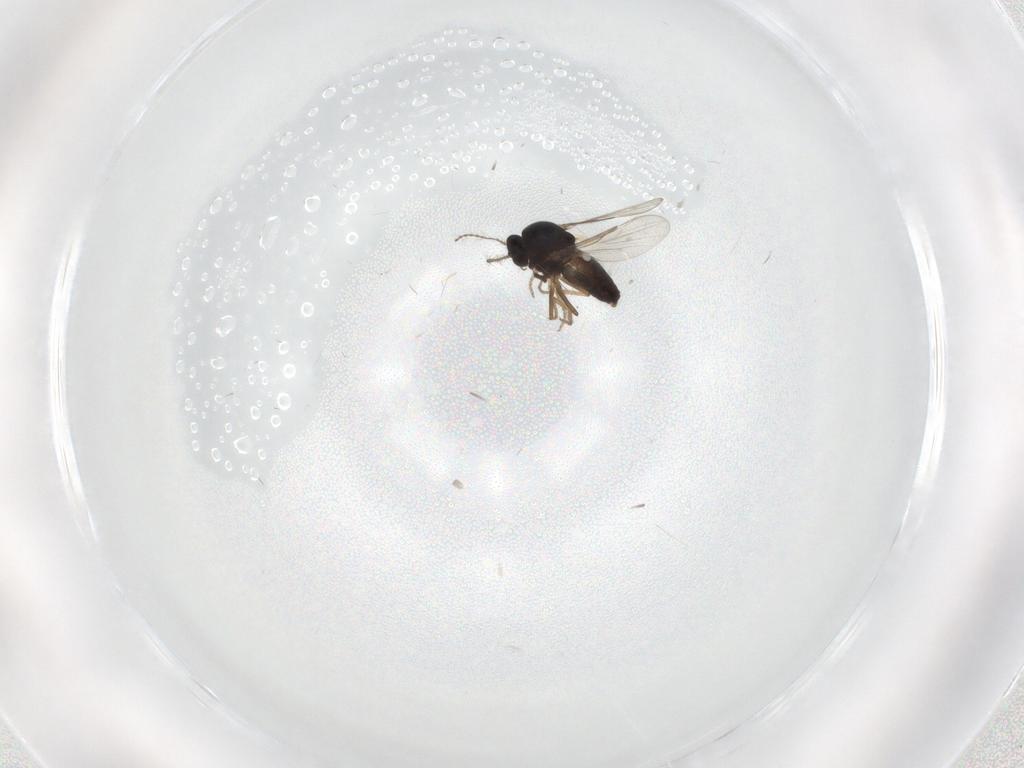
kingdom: Animalia
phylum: Arthropoda
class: Insecta
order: Diptera
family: Ceratopogonidae
